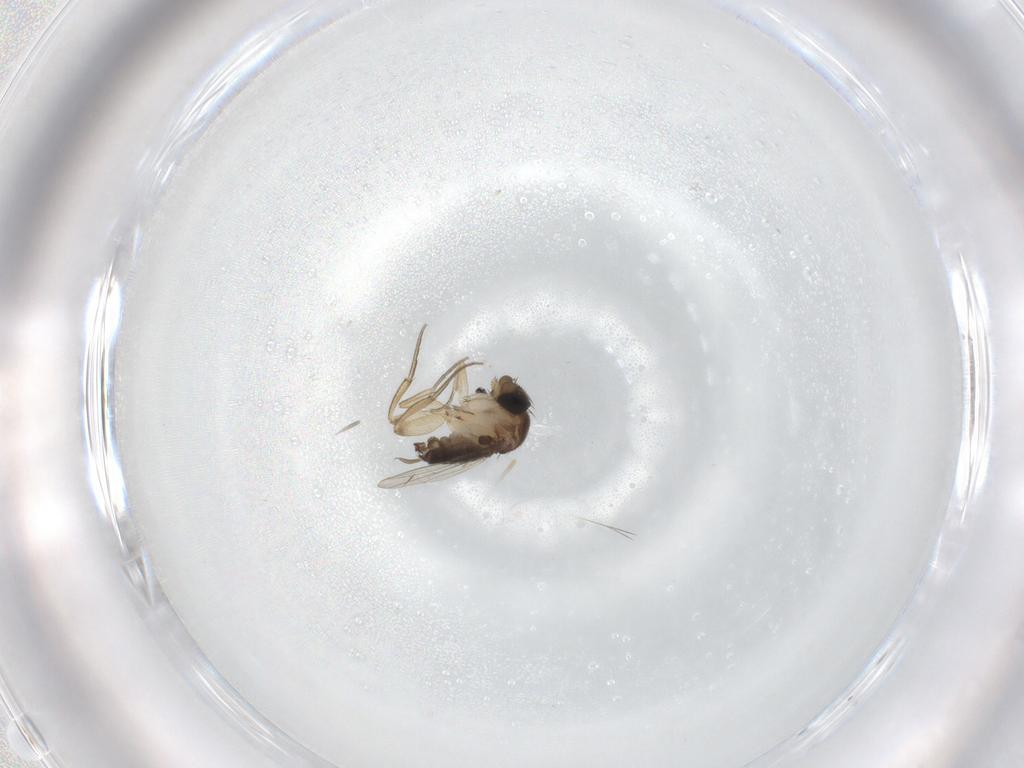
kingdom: Animalia
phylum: Arthropoda
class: Insecta
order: Diptera
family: Phoridae
